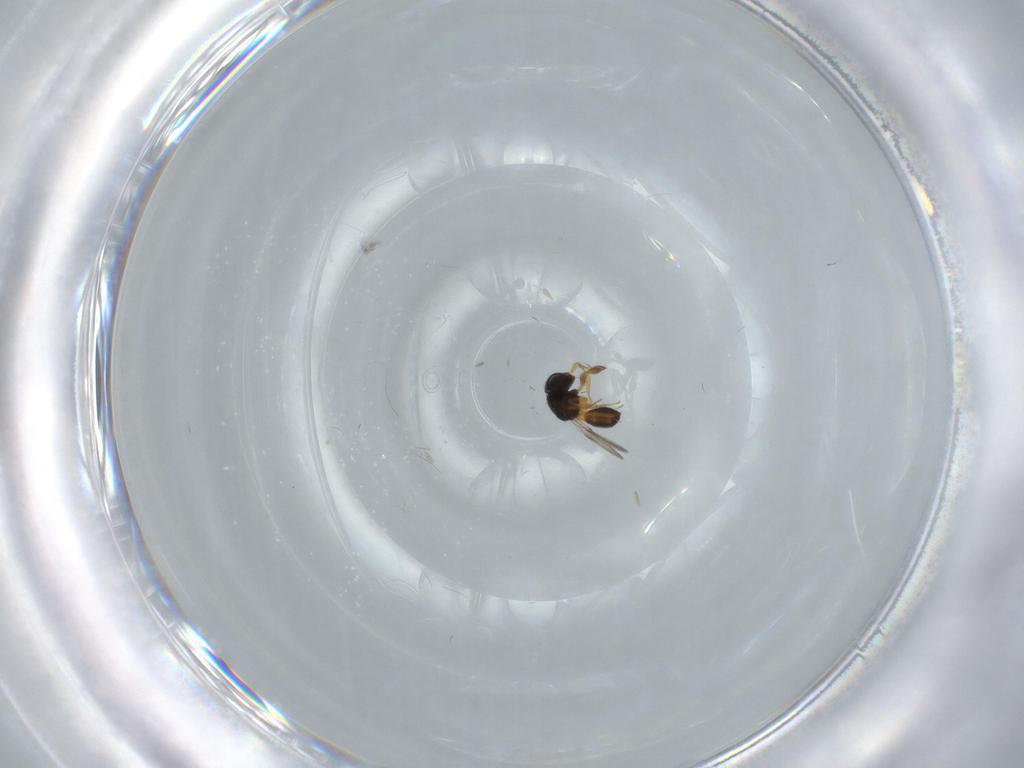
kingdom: Animalia
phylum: Arthropoda
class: Insecta
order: Hymenoptera
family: Scelionidae
